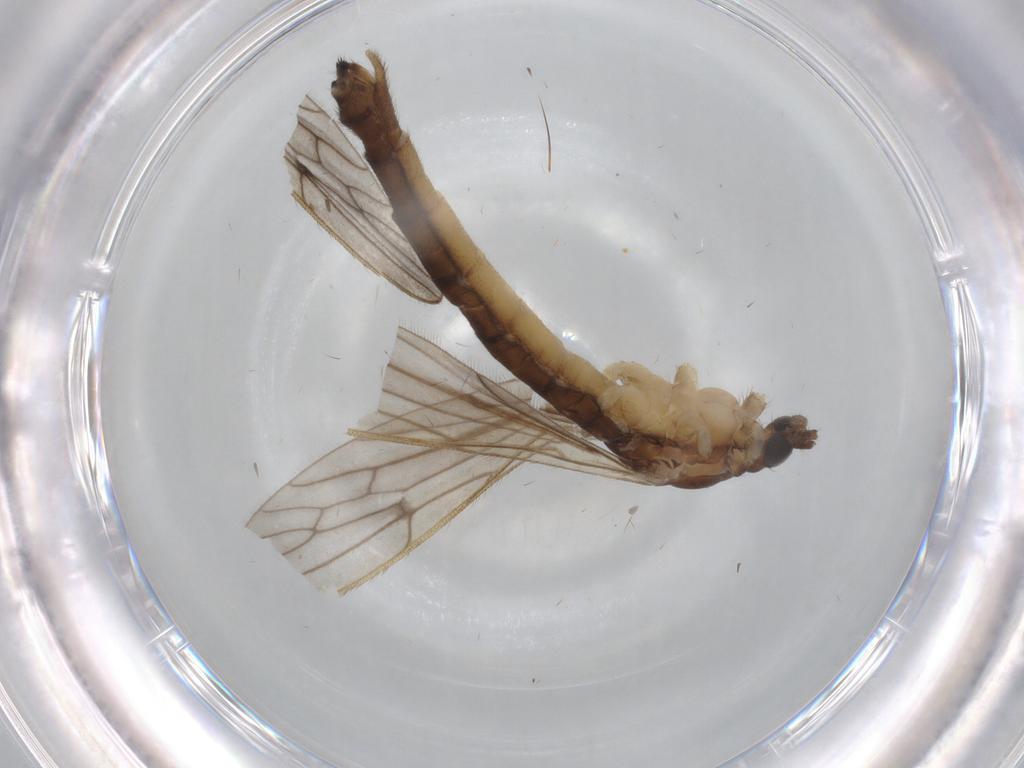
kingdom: Animalia
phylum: Arthropoda
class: Insecta
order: Diptera
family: Limoniidae
